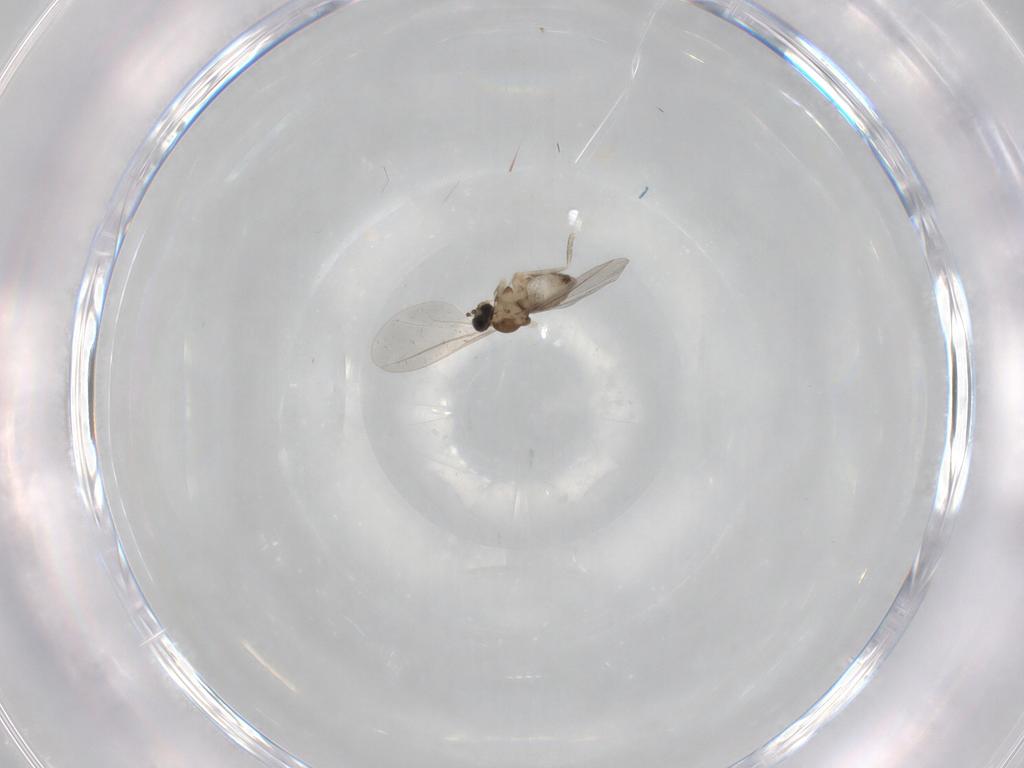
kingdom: Animalia
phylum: Arthropoda
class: Insecta
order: Diptera
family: Cecidomyiidae
